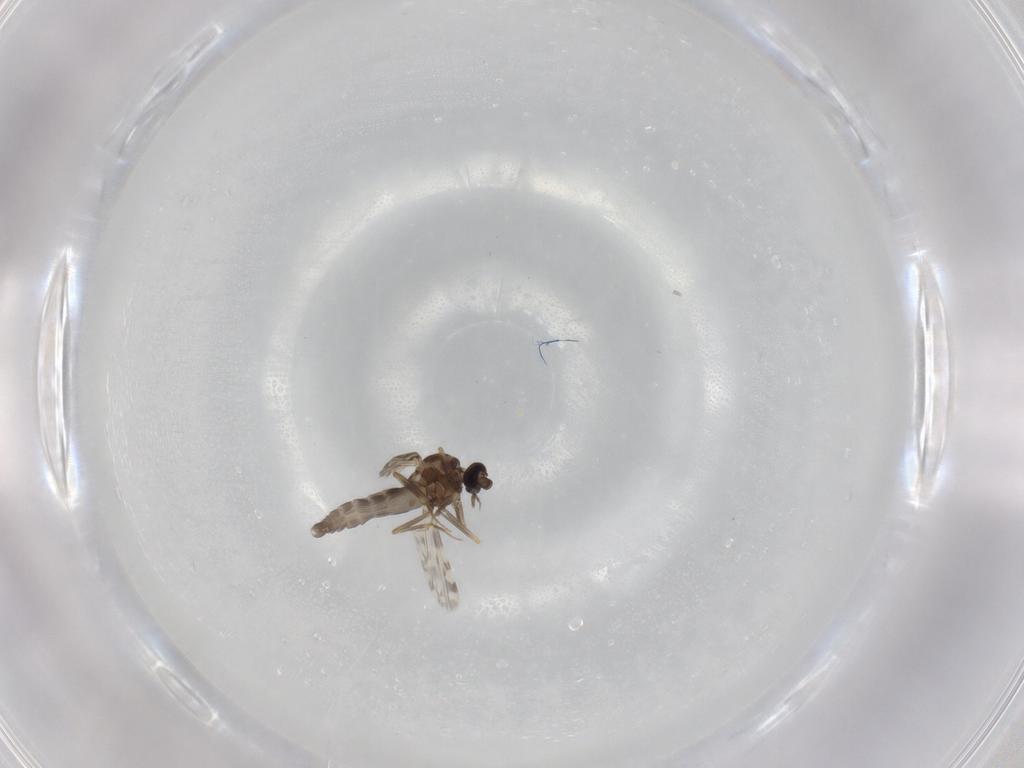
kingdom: Animalia
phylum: Arthropoda
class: Insecta
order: Diptera
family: Ceratopogonidae
